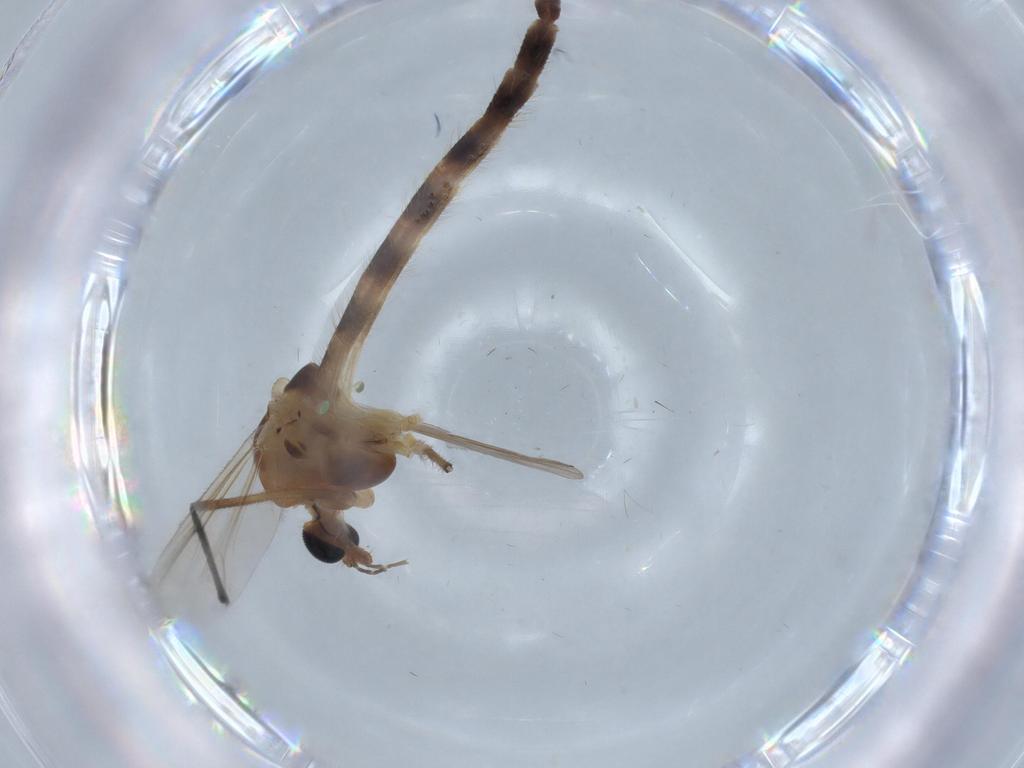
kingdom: Animalia
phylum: Arthropoda
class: Insecta
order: Diptera
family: Chironomidae
